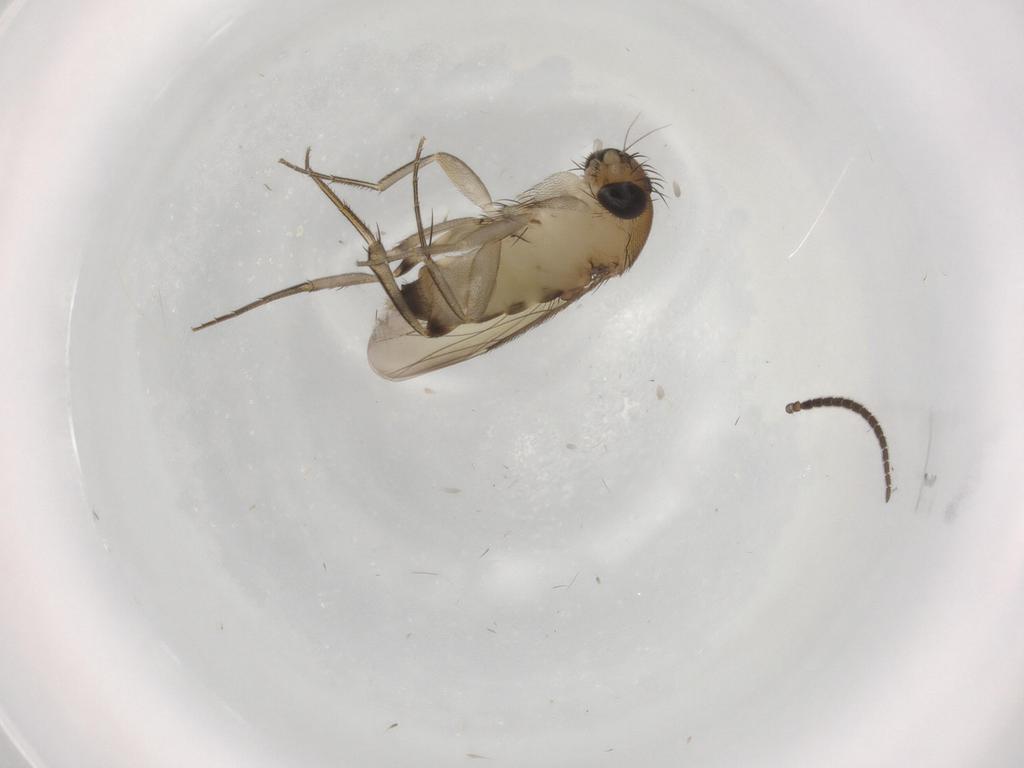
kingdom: Animalia
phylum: Arthropoda
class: Insecta
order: Diptera
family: Sciaridae
